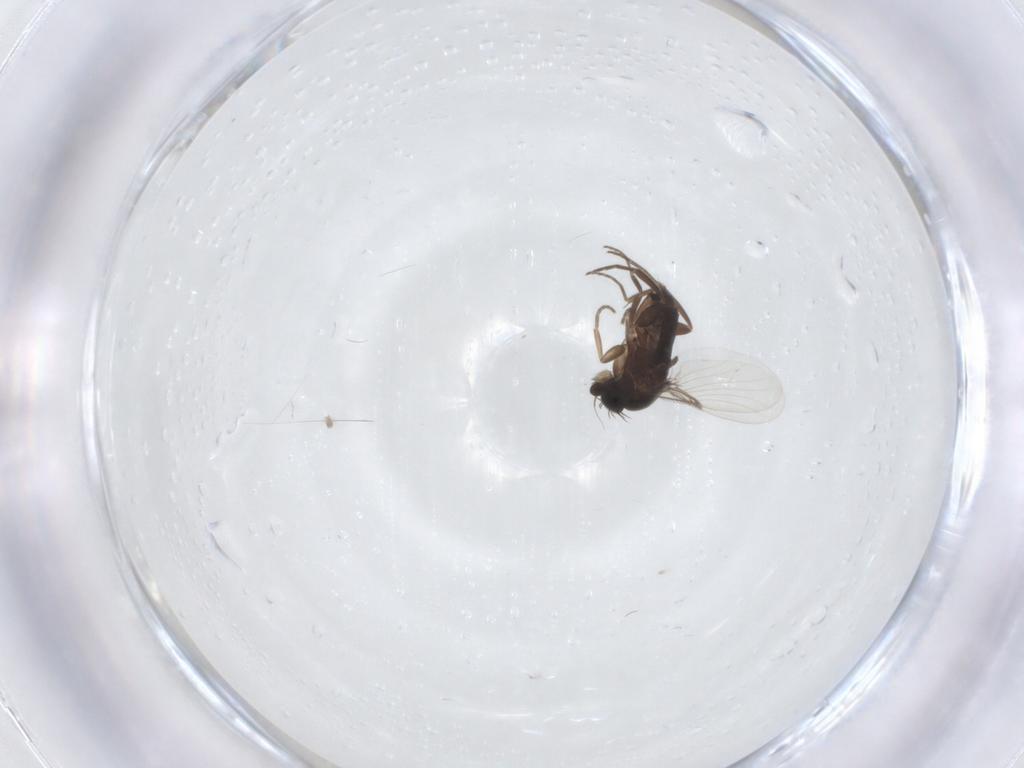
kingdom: Animalia
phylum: Arthropoda
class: Insecta
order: Diptera
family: Phoridae
